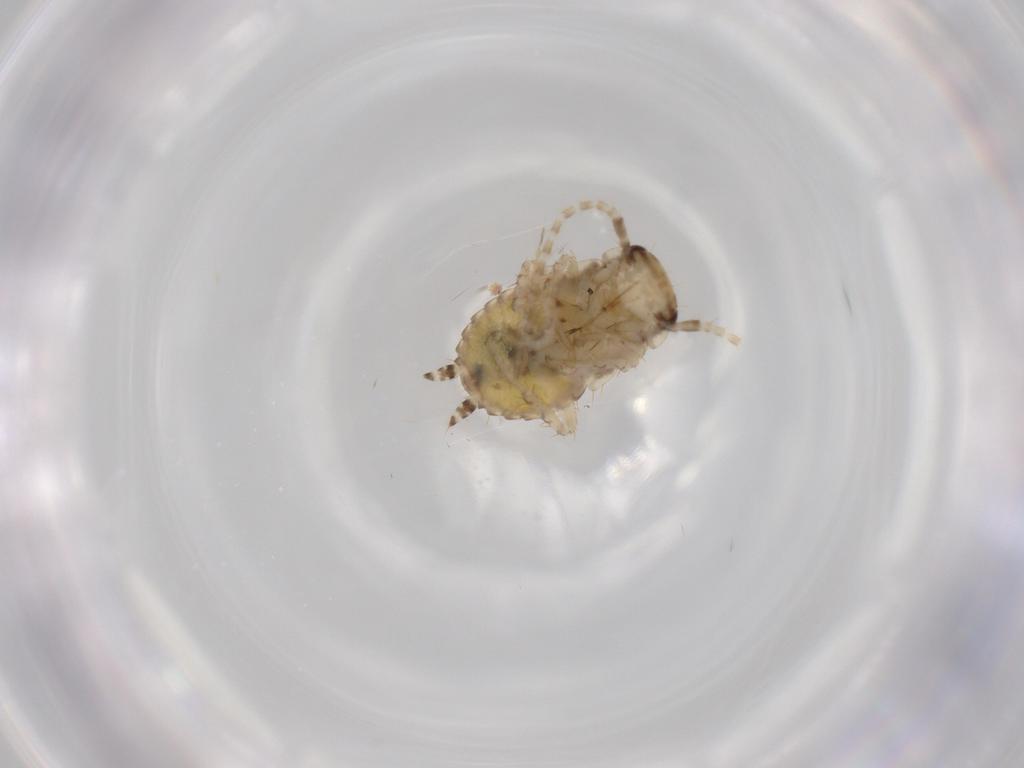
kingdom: Animalia
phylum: Arthropoda
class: Insecta
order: Blattodea
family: Ectobiidae
